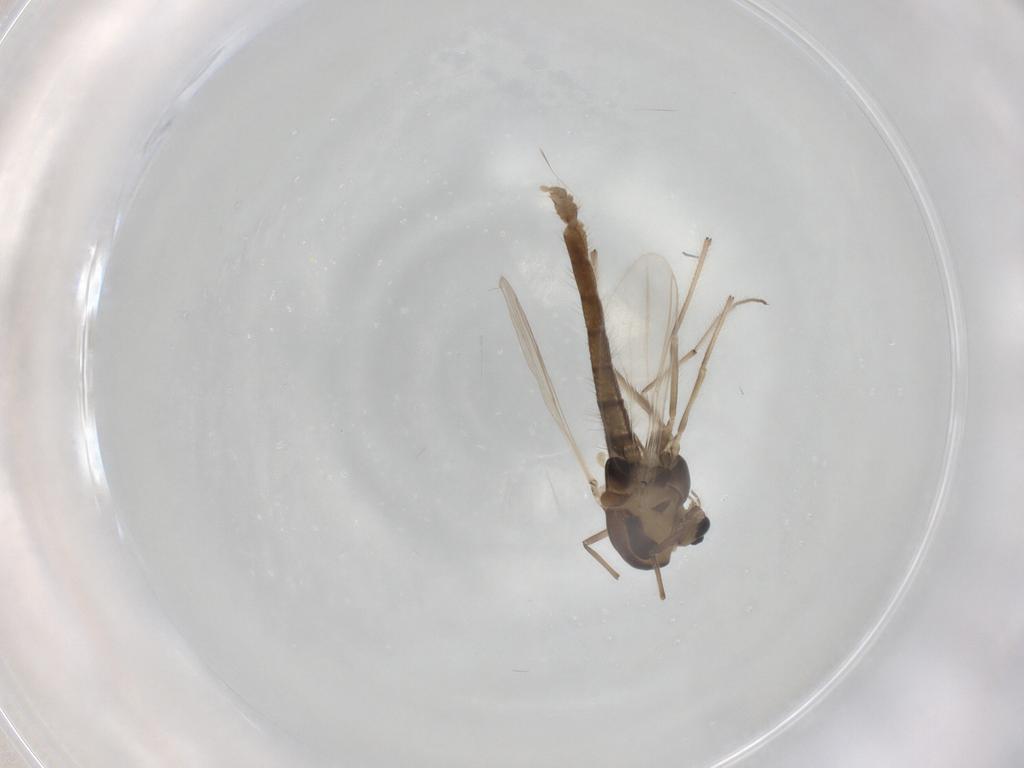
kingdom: Animalia
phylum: Arthropoda
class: Insecta
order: Diptera
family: Chironomidae
